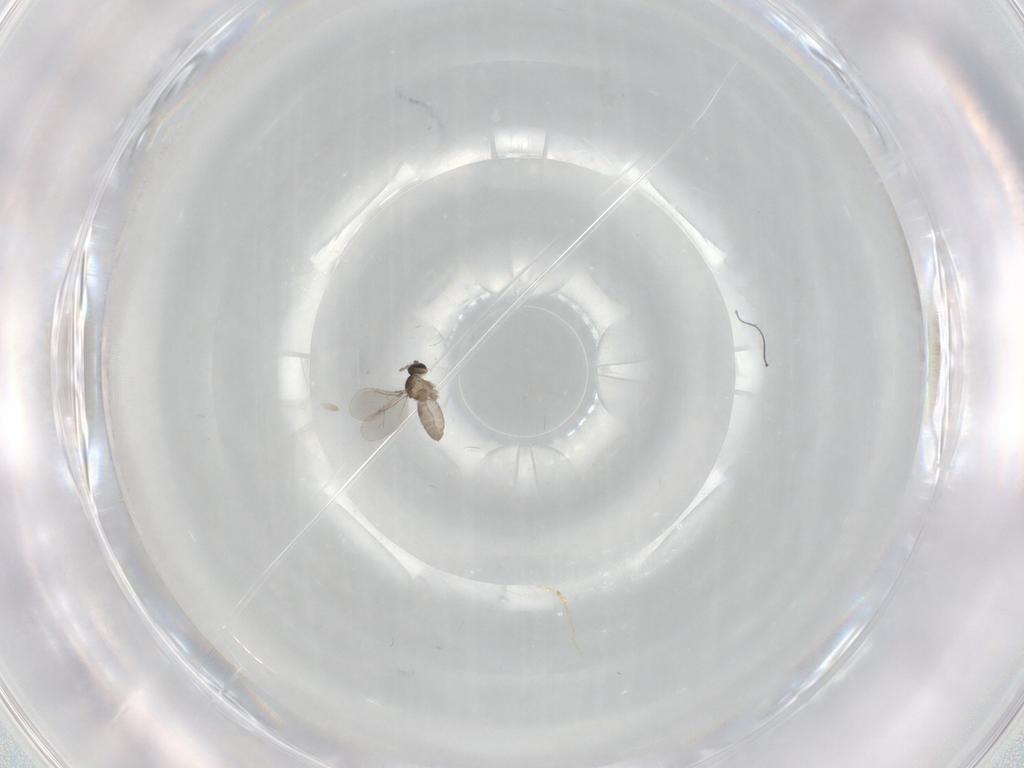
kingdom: Animalia
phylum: Arthropoda
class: Insecta
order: Diptera
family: Cecidomyiidae
